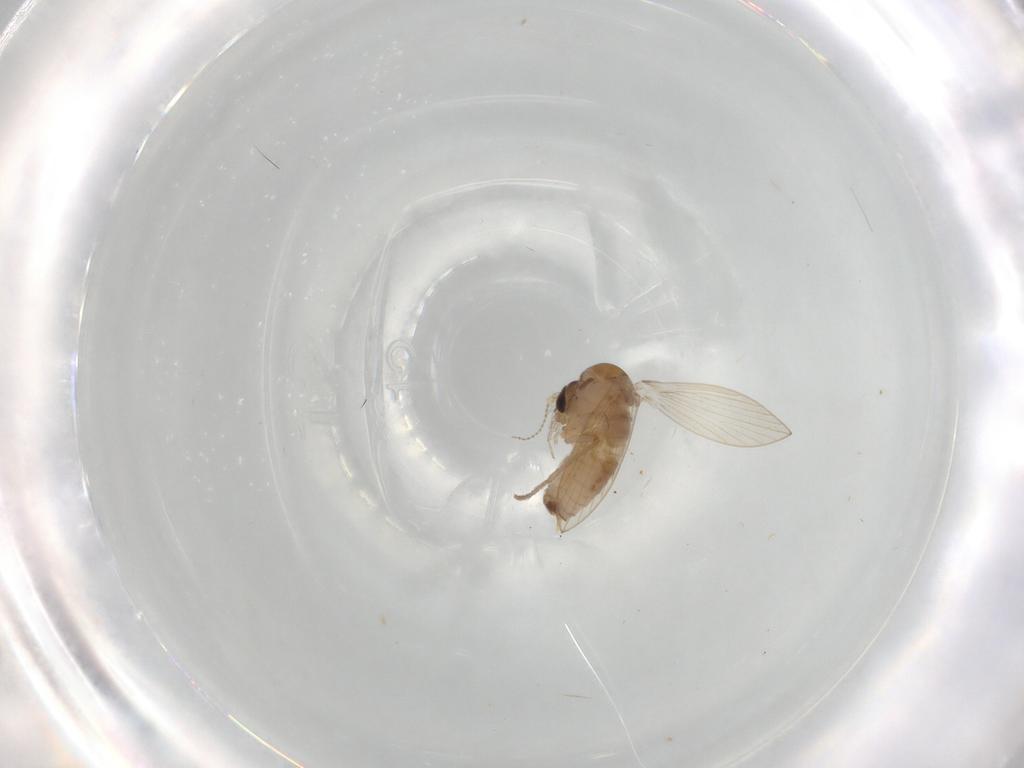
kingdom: Animalia
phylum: Arthropoda
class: Insecta
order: Diptera
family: Psychodidae
